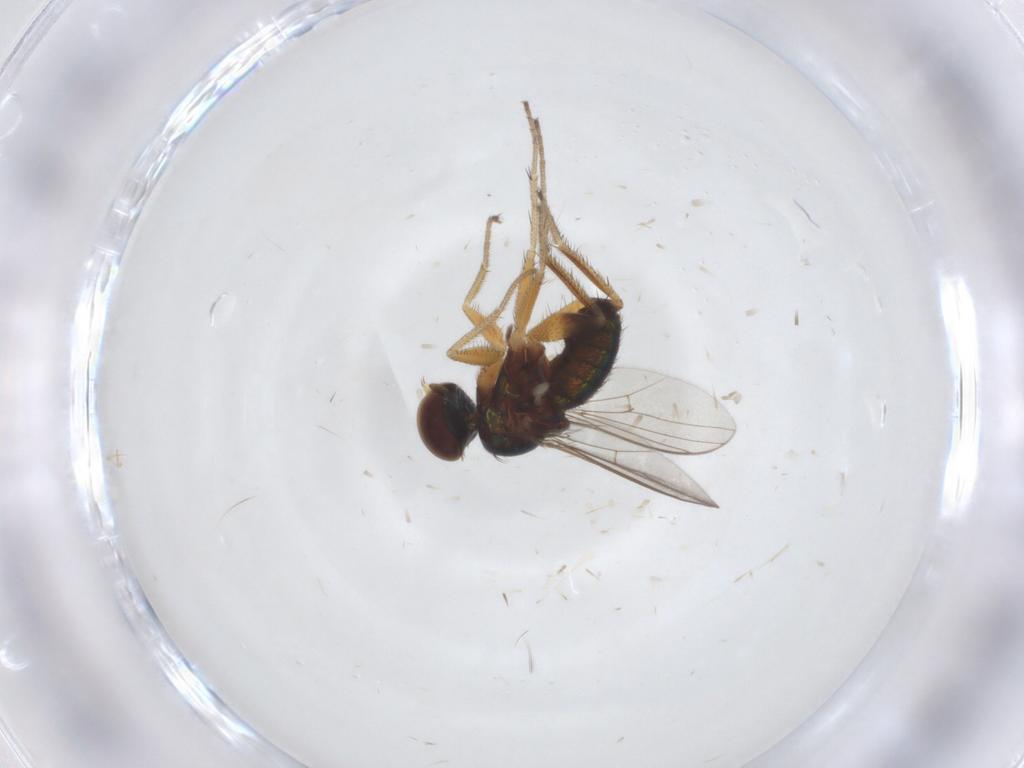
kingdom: Animalia
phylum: Arthropoda
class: Insecta
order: Diptera
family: Dolichopodidae
